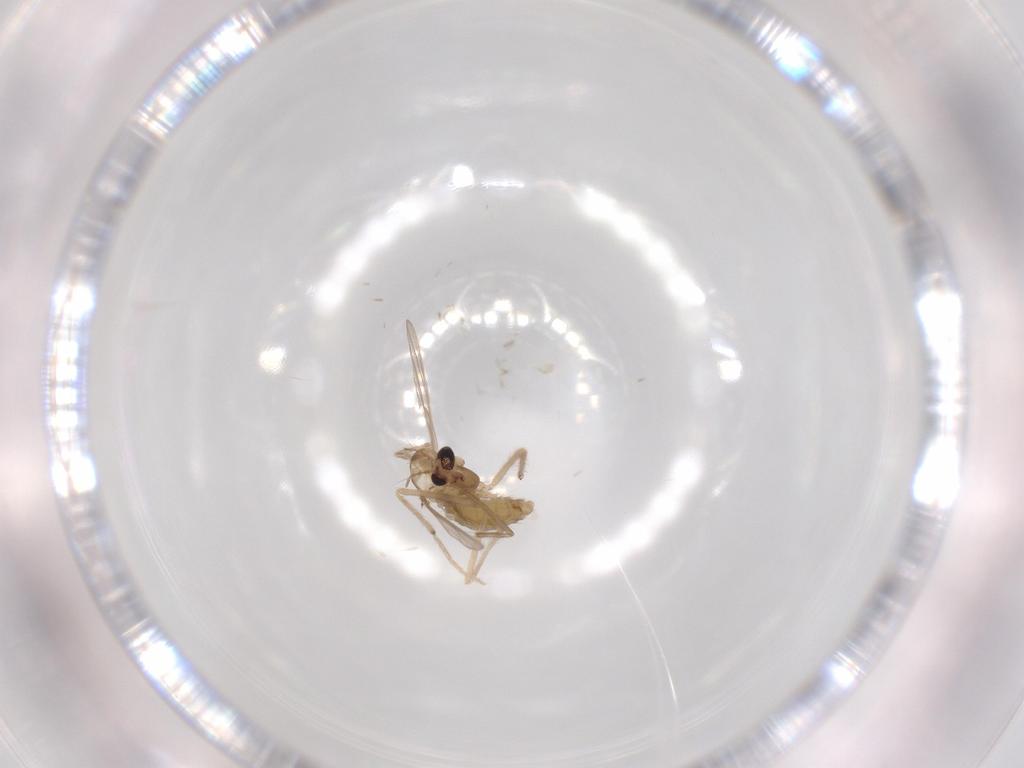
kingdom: Animalia
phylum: Arthropoda
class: Insecta
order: Diptera
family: Chironomidae
